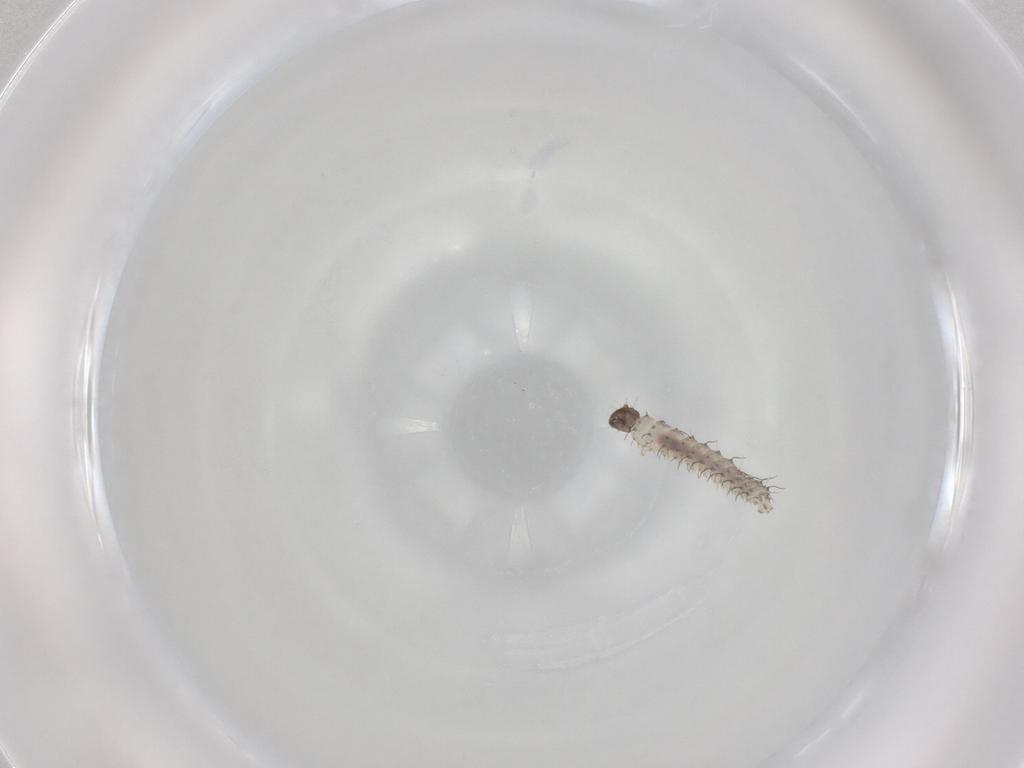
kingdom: Animalia
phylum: Arthropoda
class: Insecta
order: Diptera
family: Ceratopogonidae
